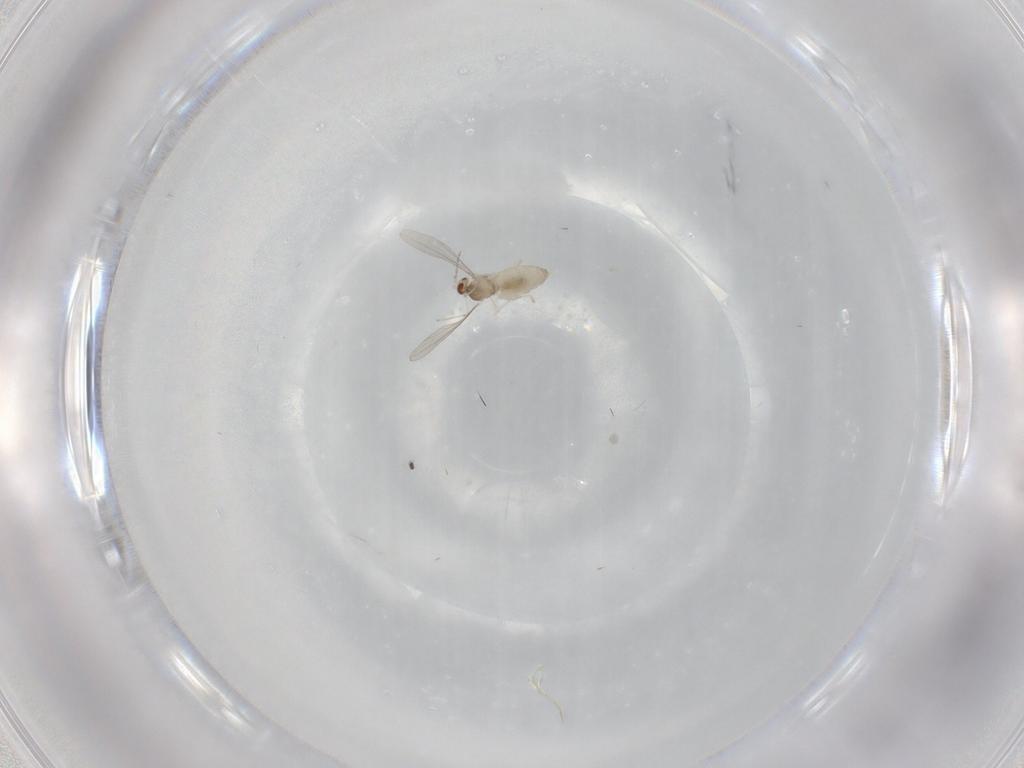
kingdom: Animalia
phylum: Arthropoda
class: Insecta
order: Diptera
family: Cecidomyiidae
